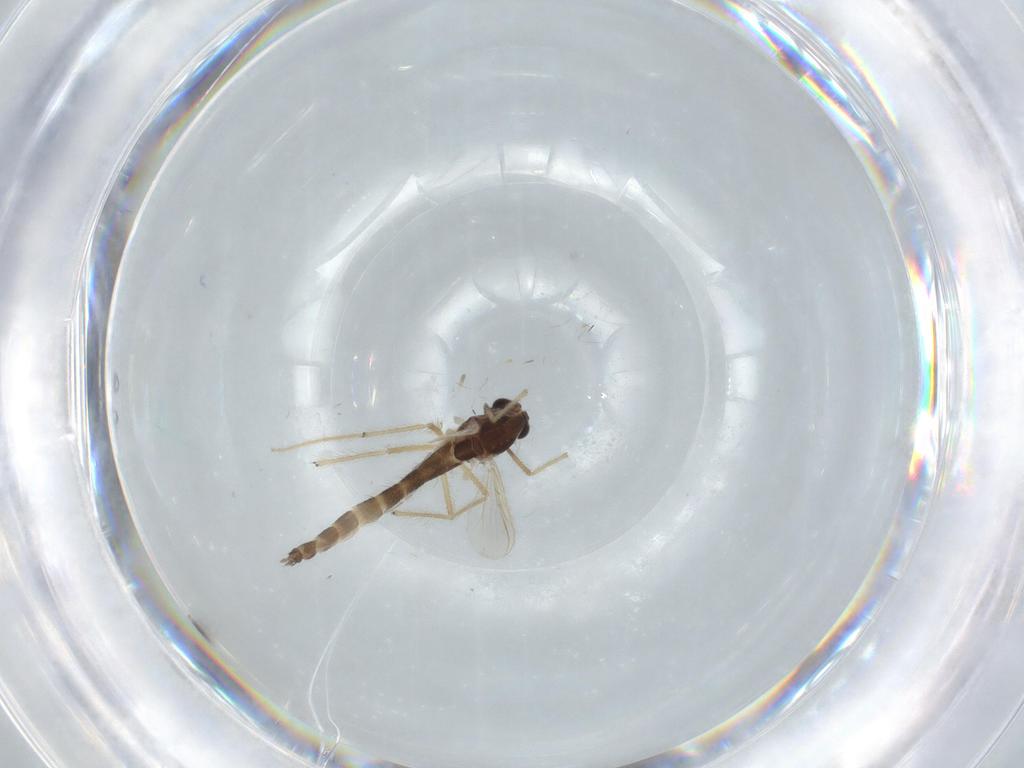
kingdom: Animalia
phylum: Arthropoda
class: Insecta
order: Diptera
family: Chironomidae
